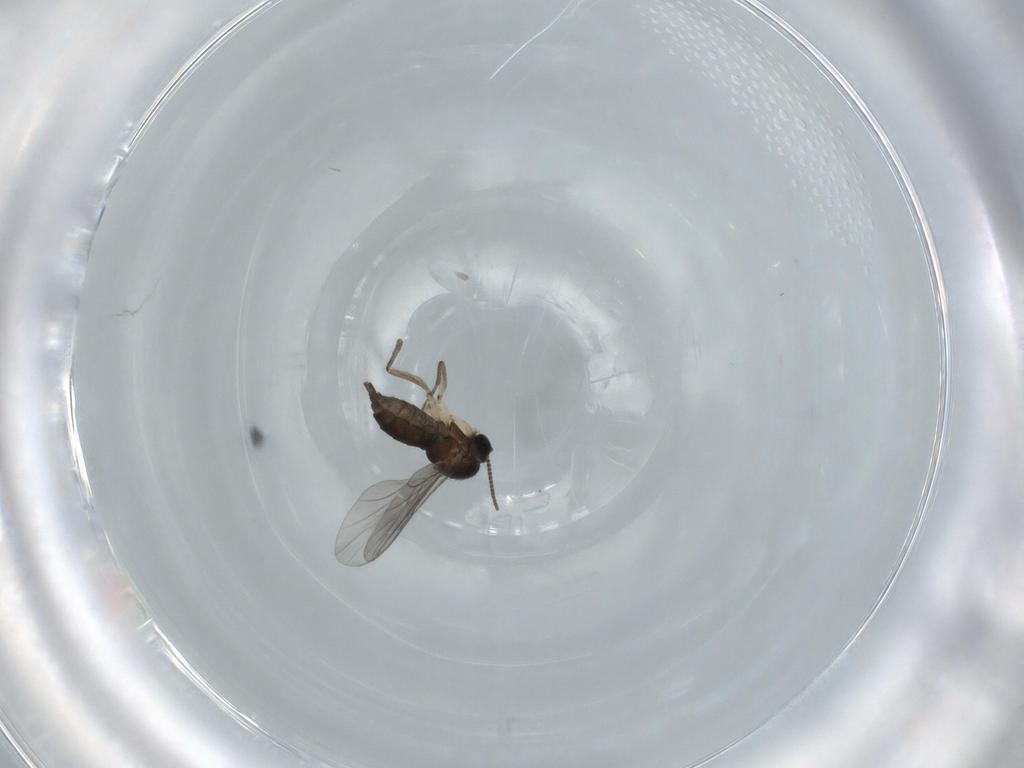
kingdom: Animalia
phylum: Arthropoda
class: Insecta
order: Diptera
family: Sciaridae
